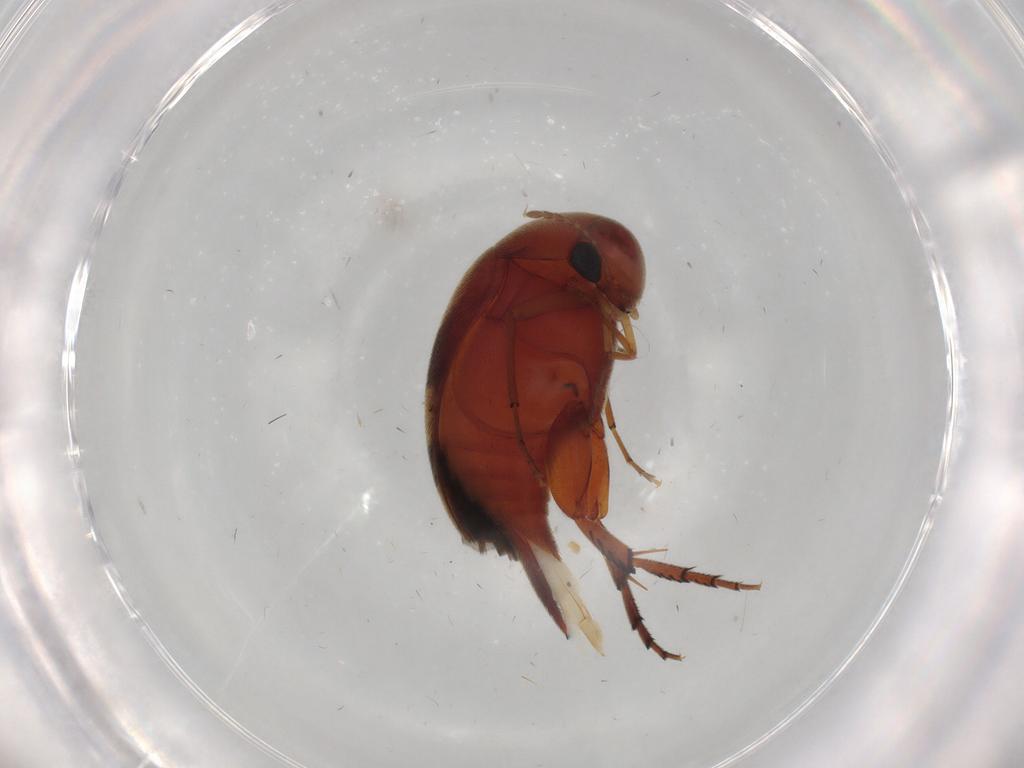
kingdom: Animalia
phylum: Arthropoda
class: Insecta
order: Coleoptera
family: Mordellidae
